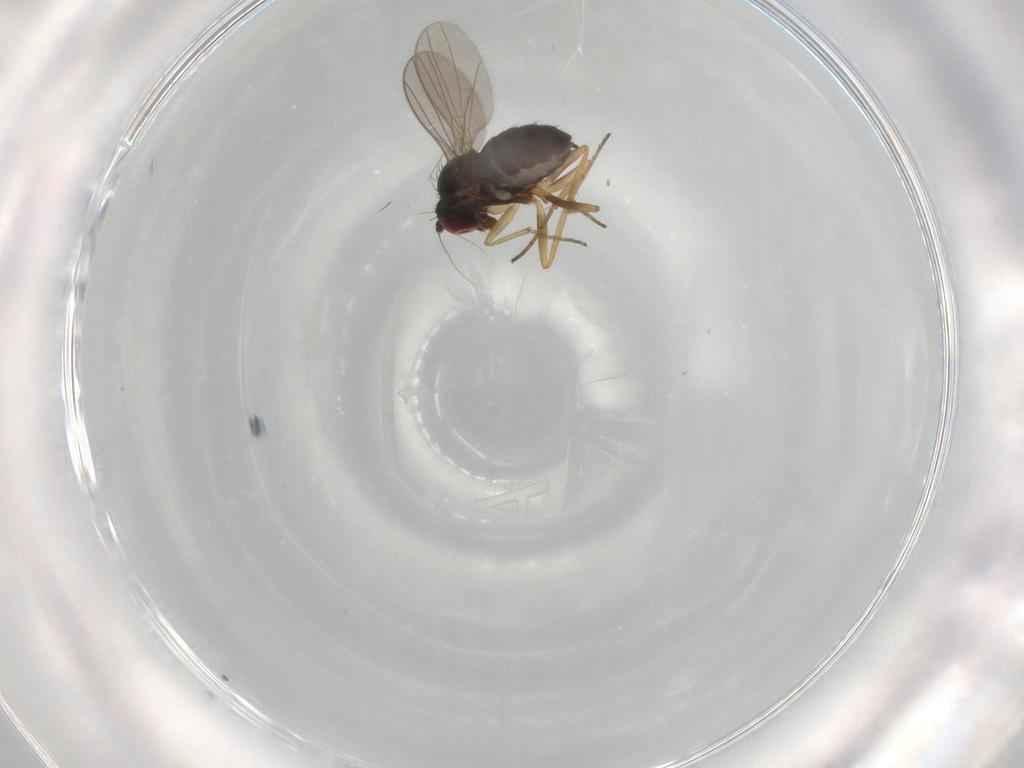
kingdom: Animalia
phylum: Arthropoda
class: Insecta
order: Diptera
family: Dolichopodidae
